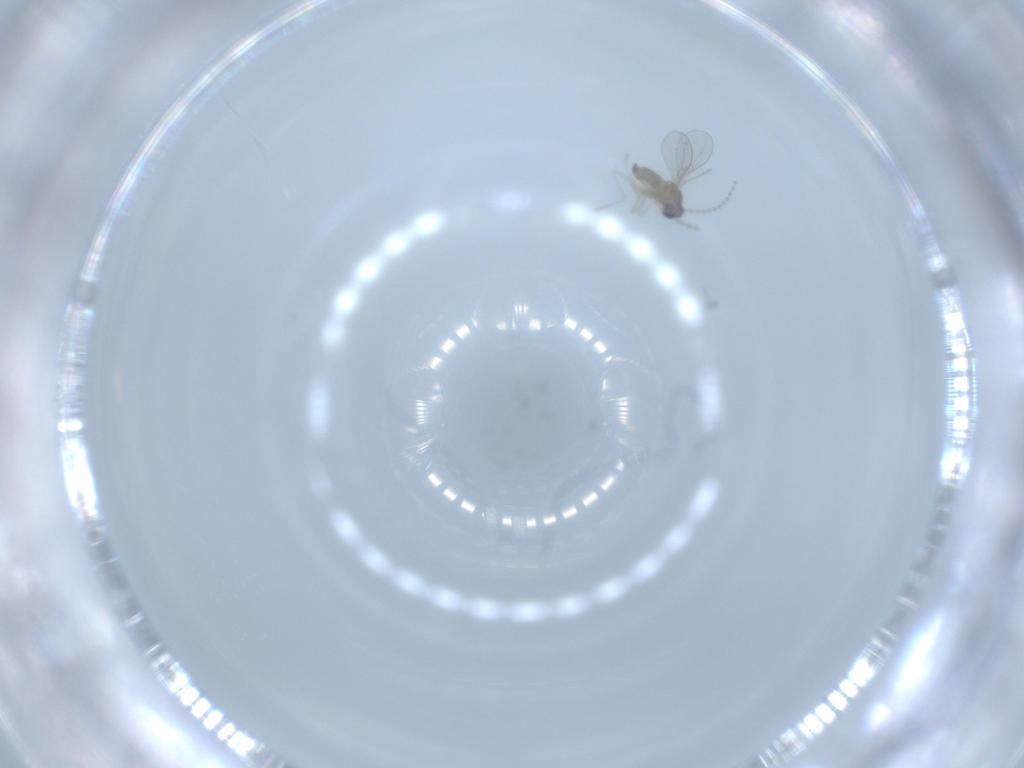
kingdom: Animalia
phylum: Arthropoda
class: Insecta
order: Diptera
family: Cecidomyiidae
